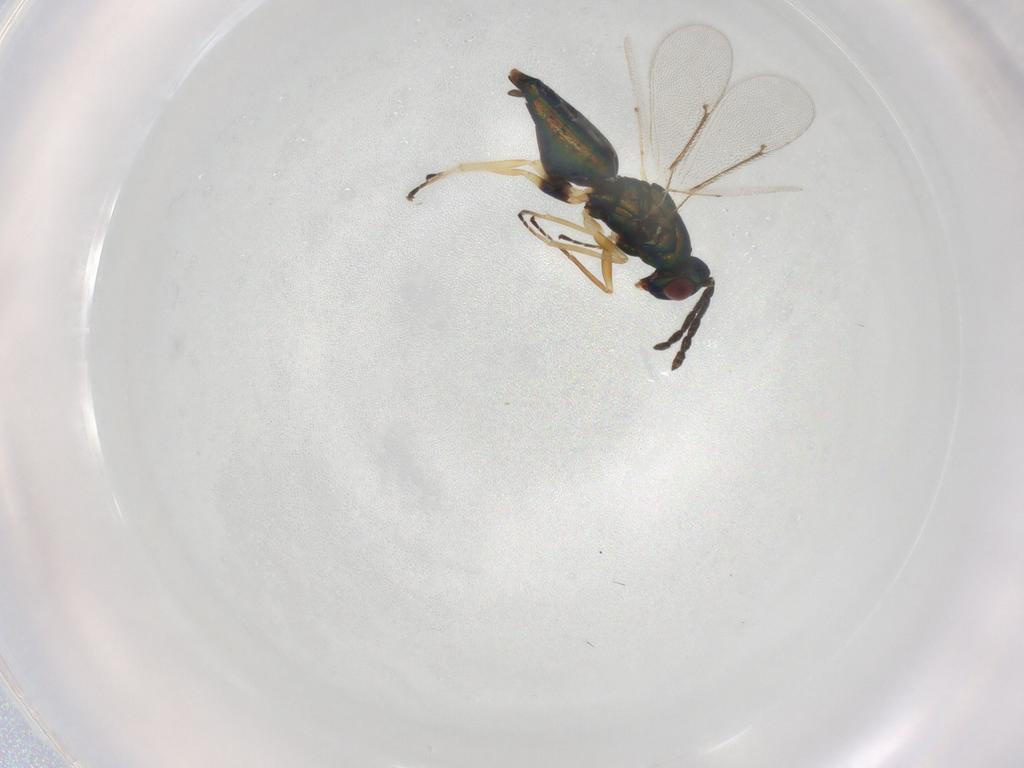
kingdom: Animalia
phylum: Arthropoda
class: Insecta
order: Hymenoptera
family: Eulophidae
